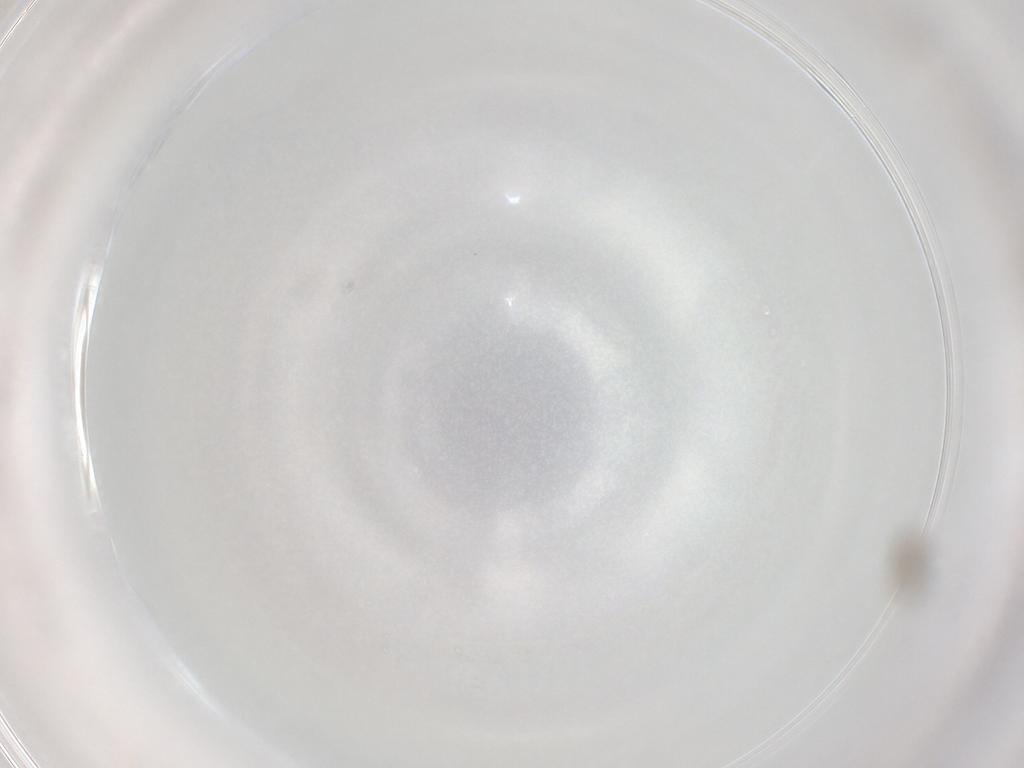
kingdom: Animalia
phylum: Arthropoda
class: Insecta
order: Diptera
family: Cecidomyiidae
